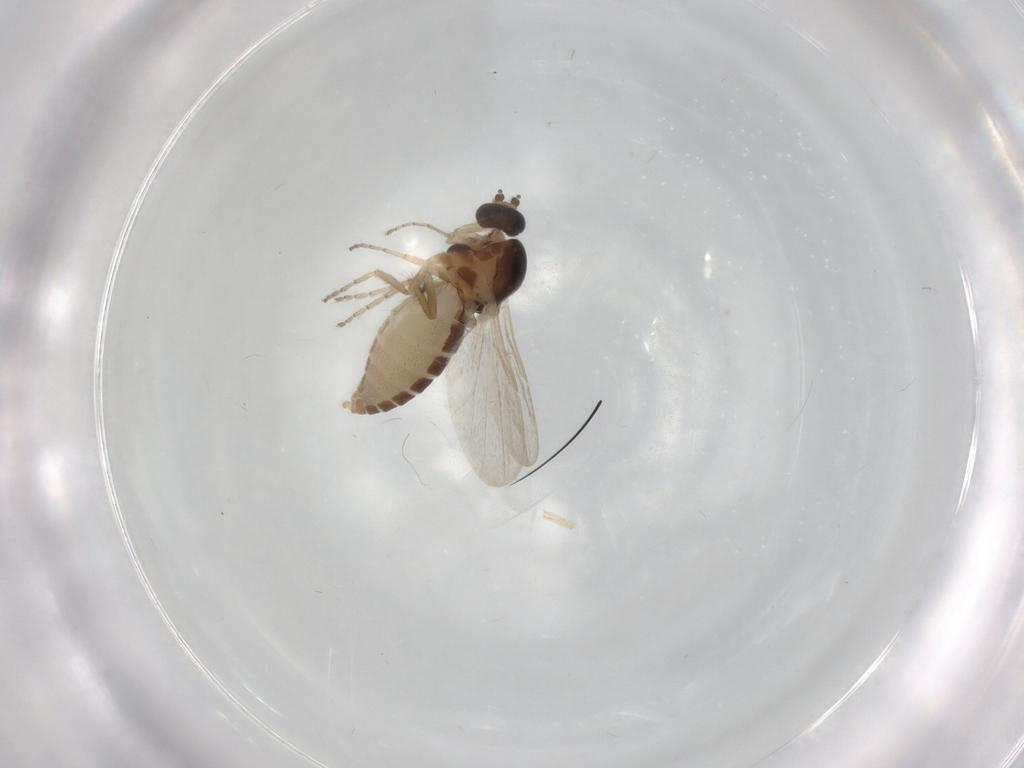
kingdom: Animalia
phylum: Arthropoda
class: Insecta
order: Diptera
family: Ceratopogonidae
